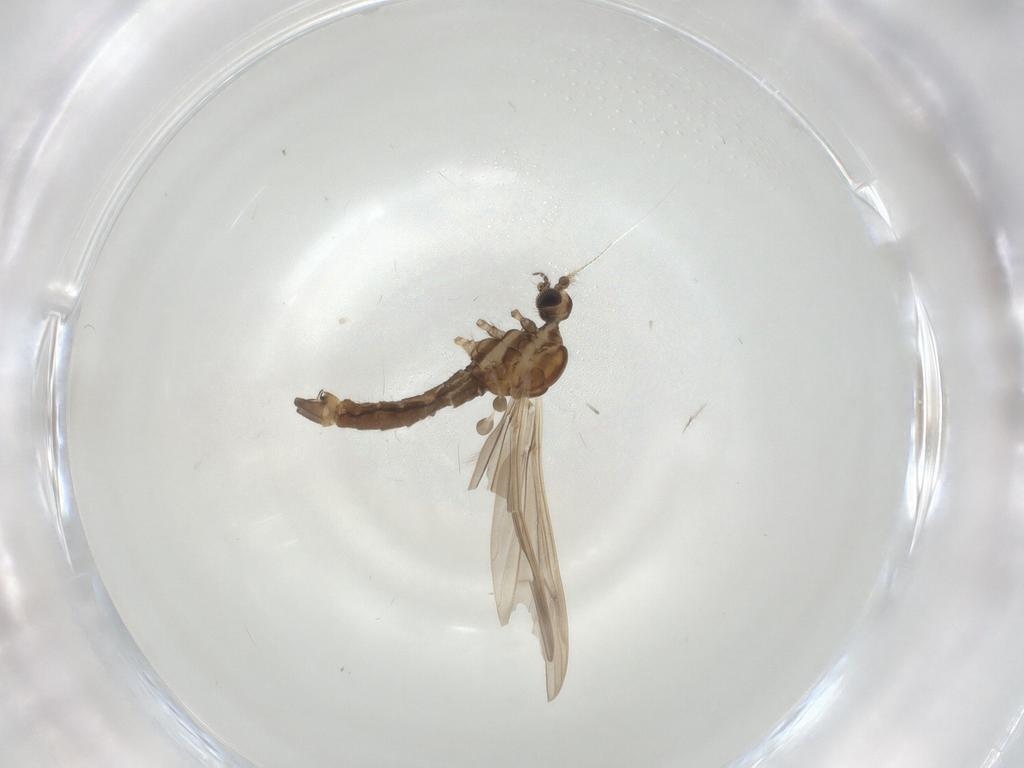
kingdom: Animalia
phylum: Arthropoda
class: Insecta
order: Diptera
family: Limoniidae
